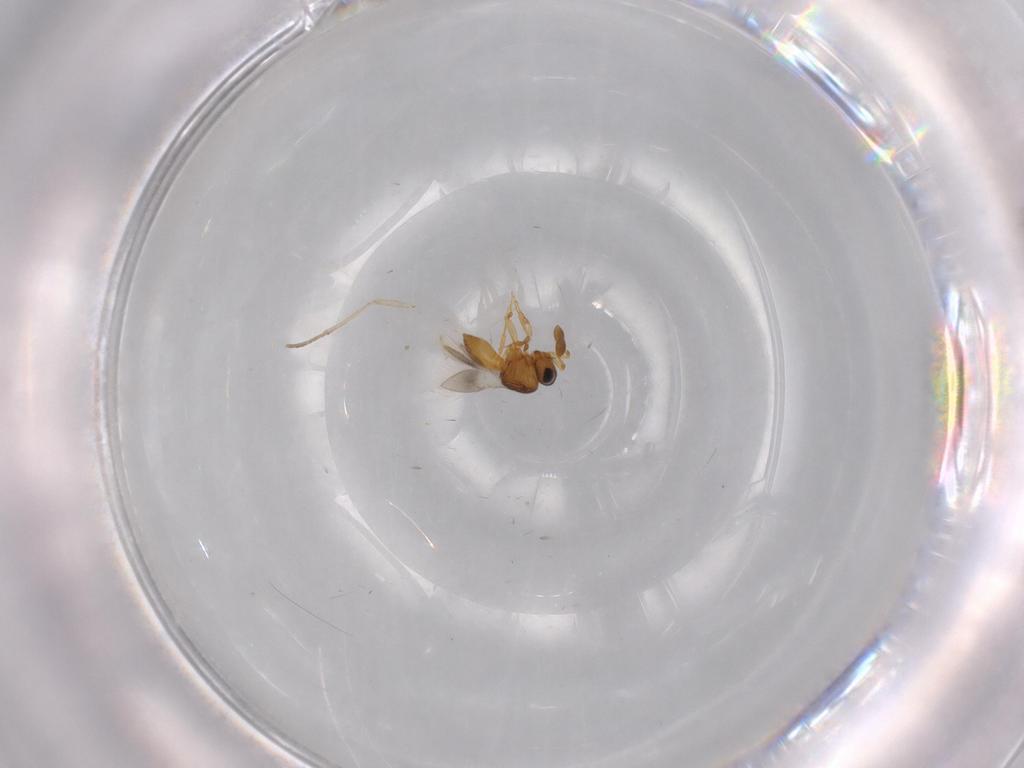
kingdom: Animalia
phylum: Arthropoda
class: Insecta
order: Hymenoptera
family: Scelionidae
